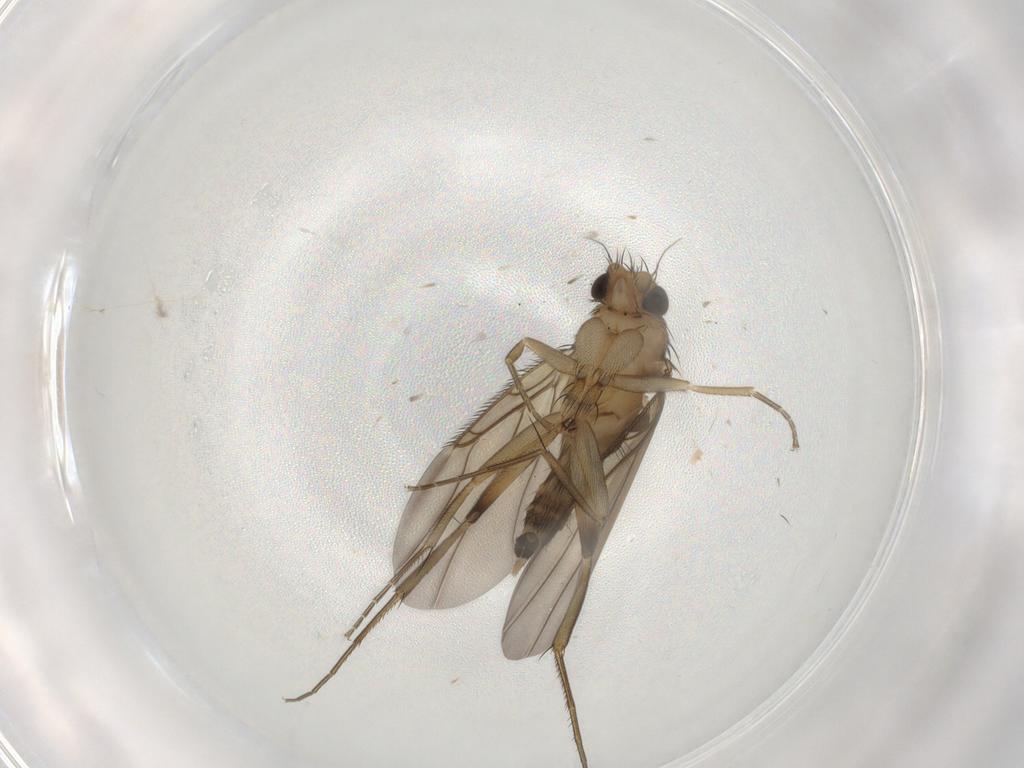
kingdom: Animalia
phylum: Arthropoda
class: Insecta
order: Diptera
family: Phoridae
